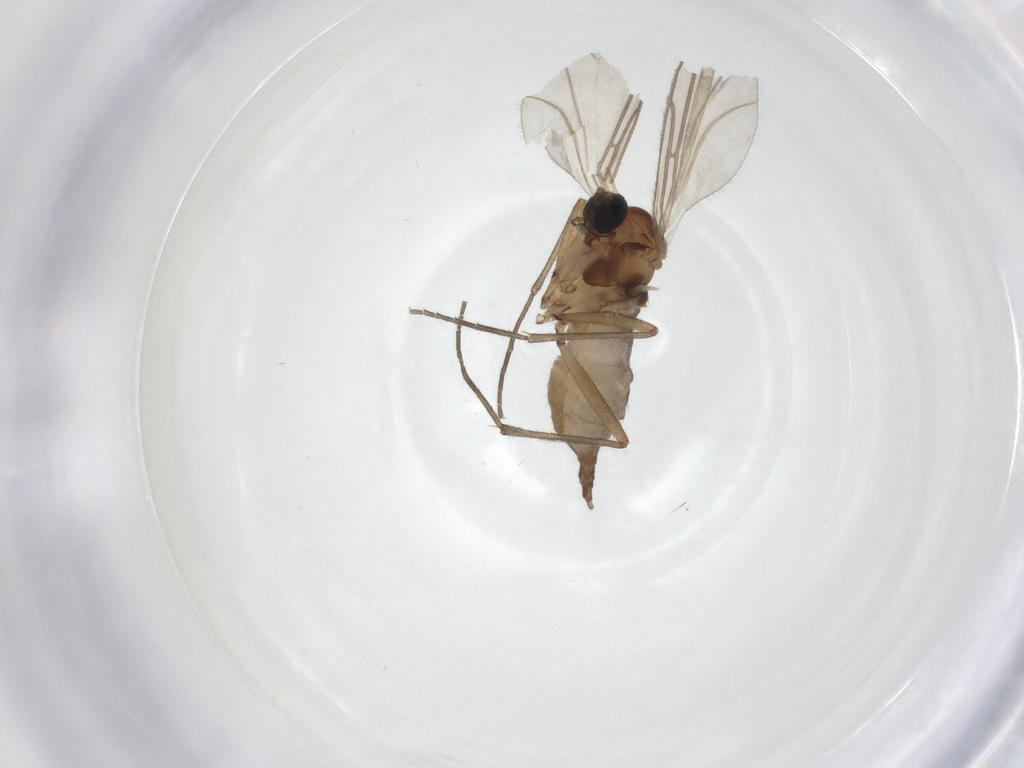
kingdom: Animalia
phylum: Arthropoda
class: Insecta
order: Diptera
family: Sciaridae
